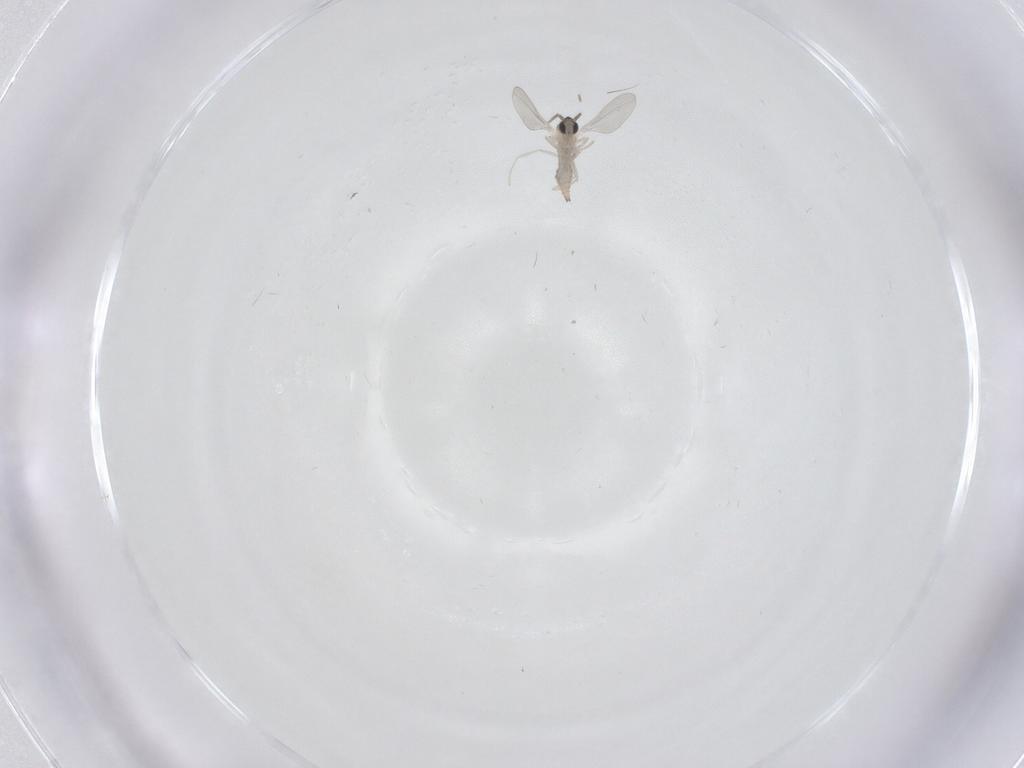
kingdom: Animalia
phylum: Arthropoda
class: Insecta
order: Diptera
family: Cecidomyiidae
